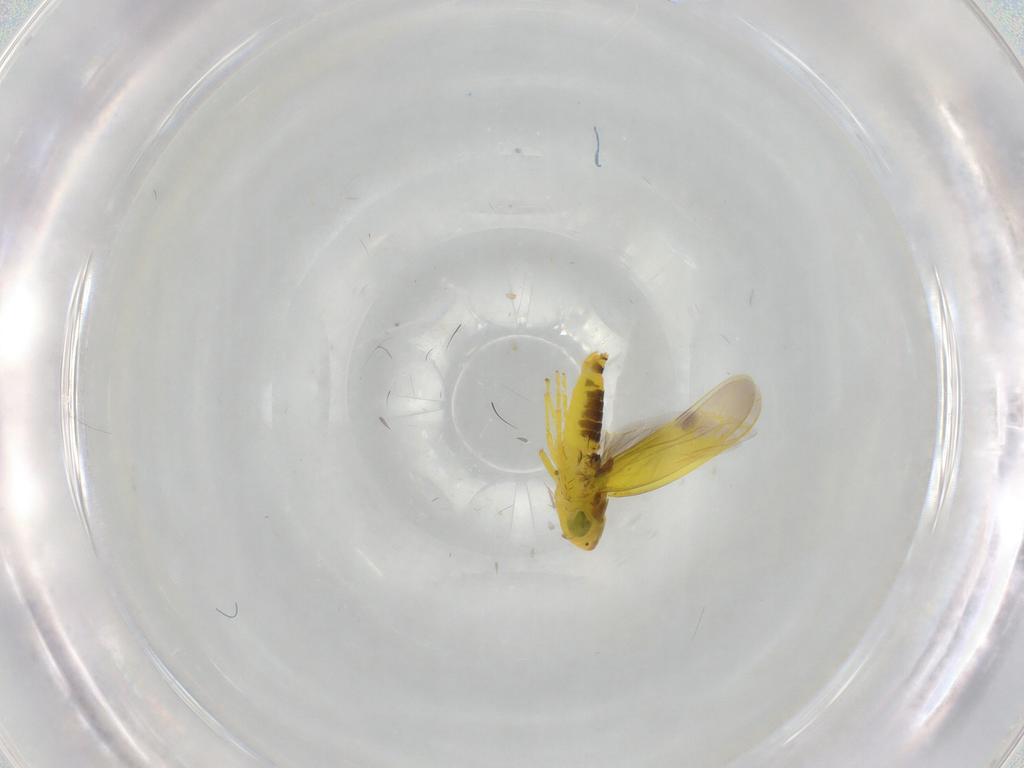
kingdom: Animalia
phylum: Arthropoda
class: Insecta
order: Hemiptera
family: Cicadellidae
